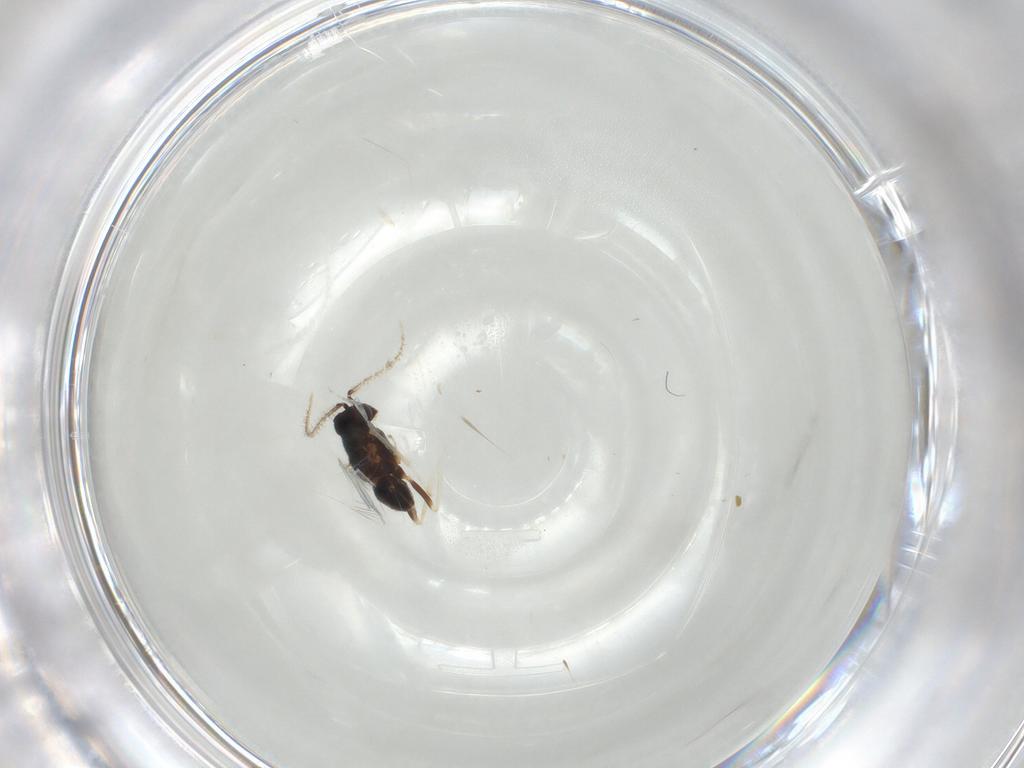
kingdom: Animalia
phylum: Arthropoda
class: Insecta
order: Hymenoptera
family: Encyrtidae
